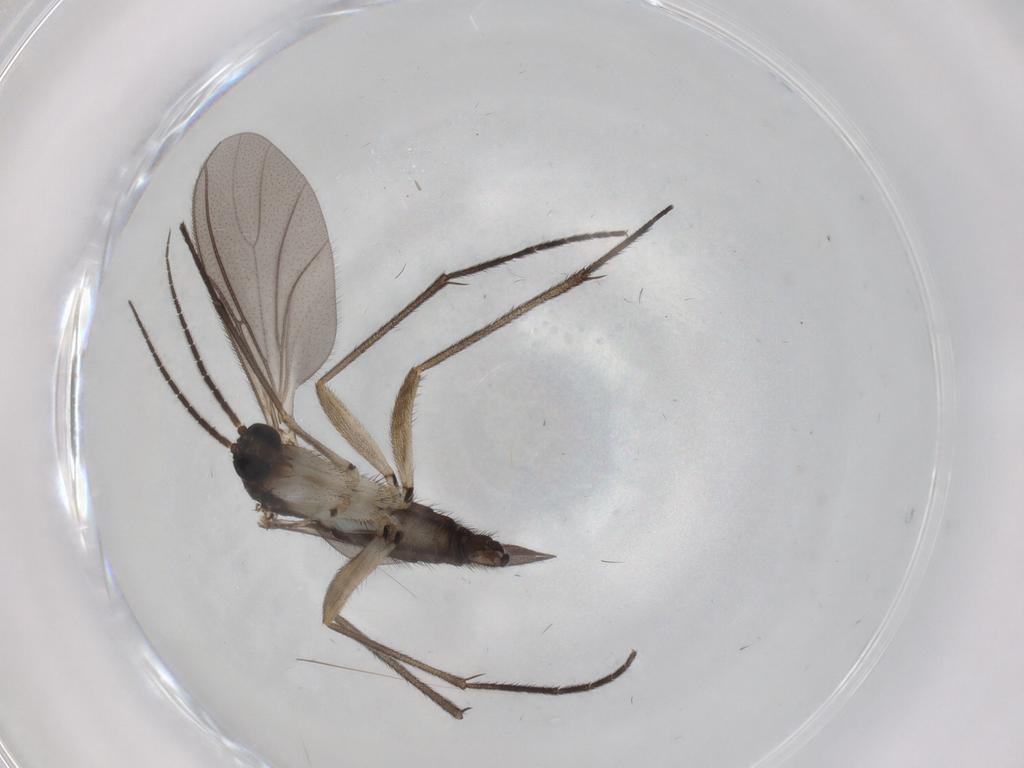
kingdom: Animalia
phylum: Arthropoda
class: Insecta
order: Diptera
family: Sciaridae
